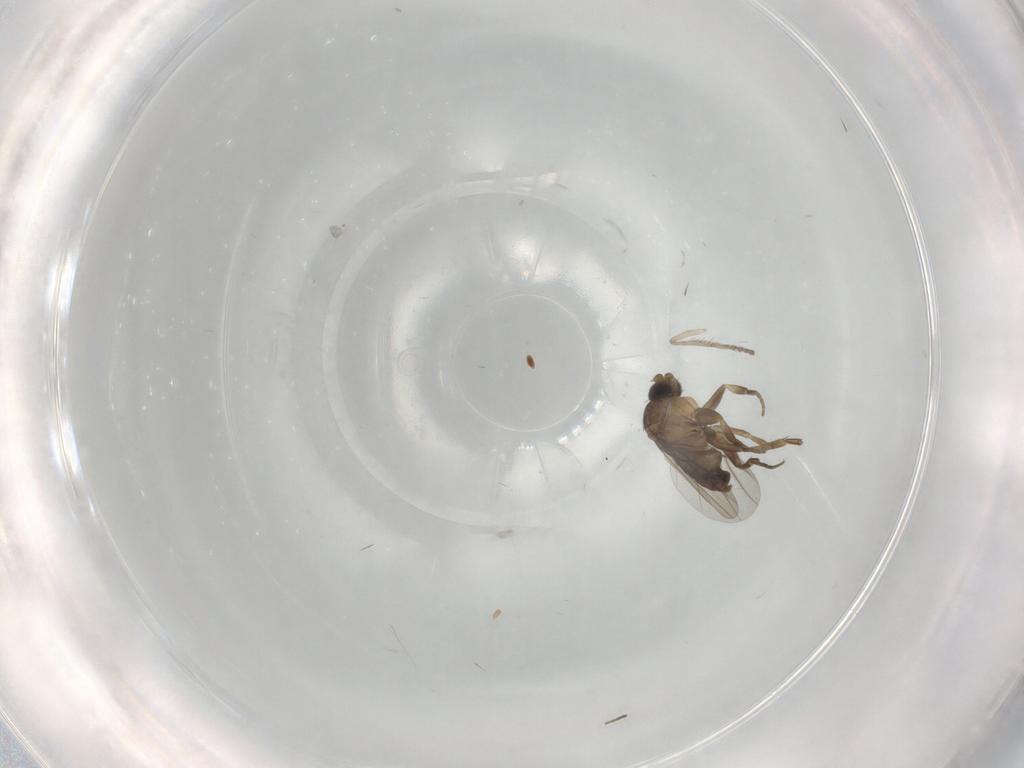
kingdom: Animalia
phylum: Arthropoda
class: Insecta
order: Diptera
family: Psychodidae
